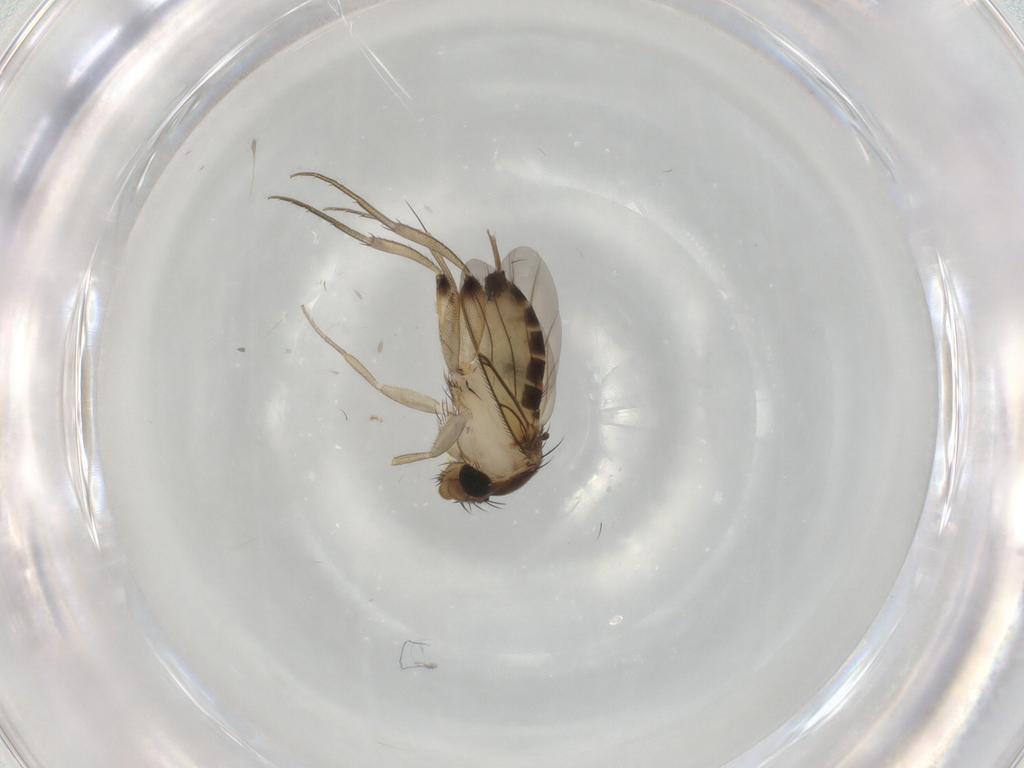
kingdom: Animalia
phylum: Arthropoda
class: Insecta
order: Diptera
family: Phoridae
